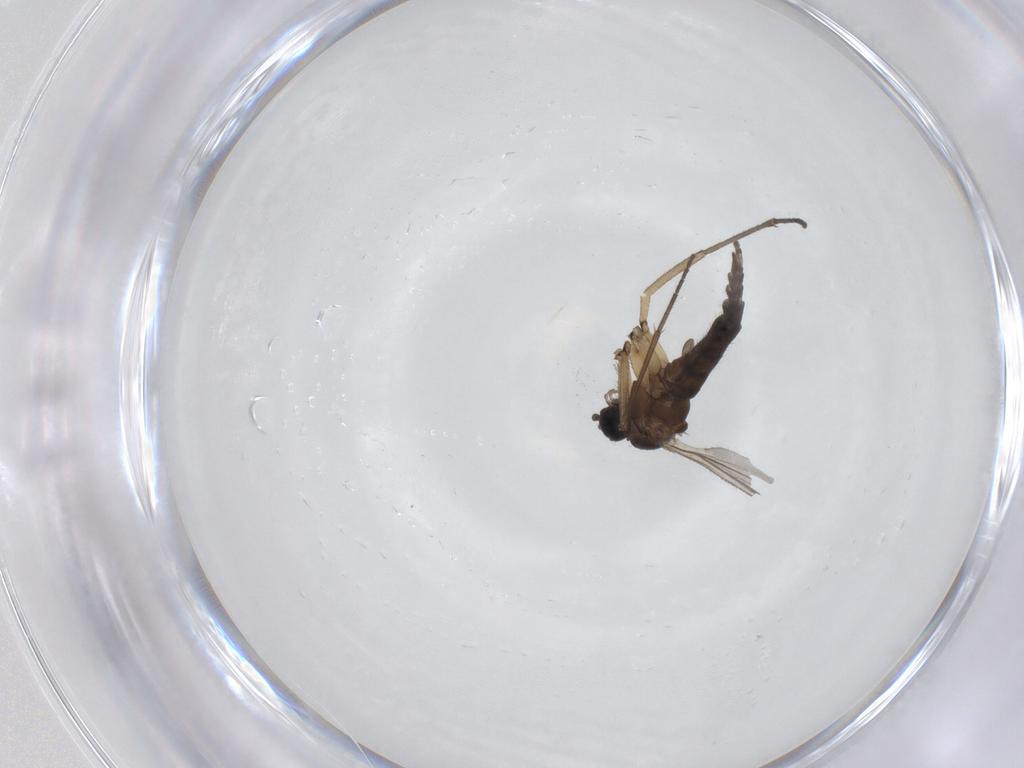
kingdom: Animalia
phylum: Arthropoda
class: Insecta
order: Diptera
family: Sciaridae
